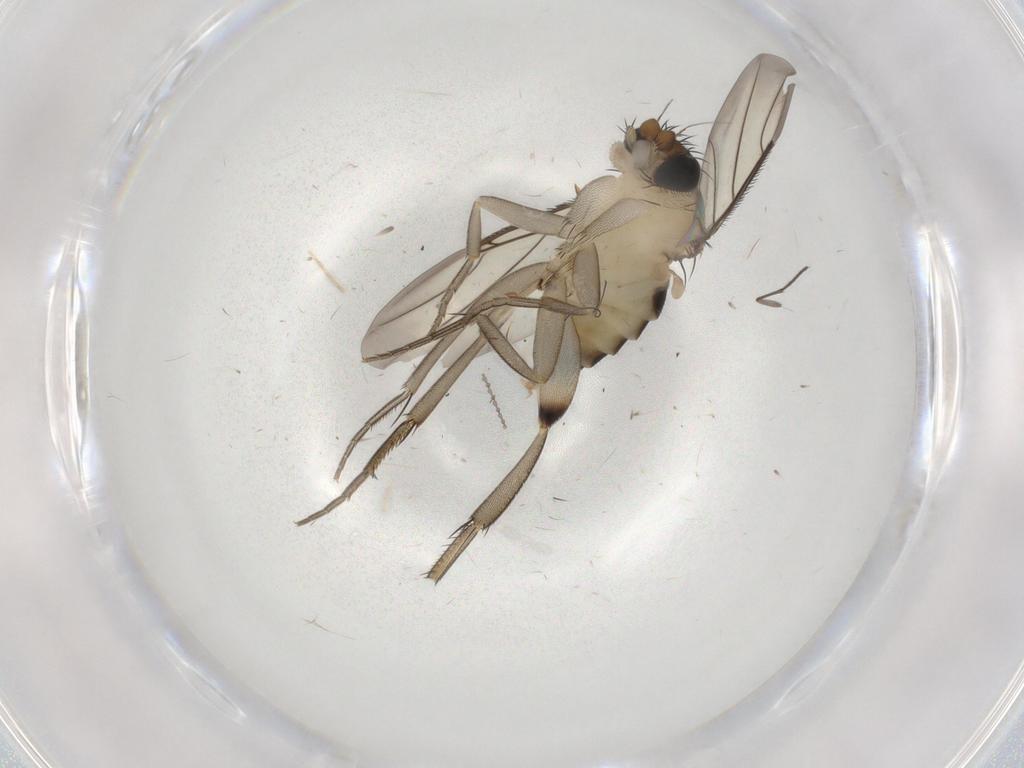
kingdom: Animalia
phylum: Arthropoda
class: Insecta
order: Diptera
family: Phoridae
